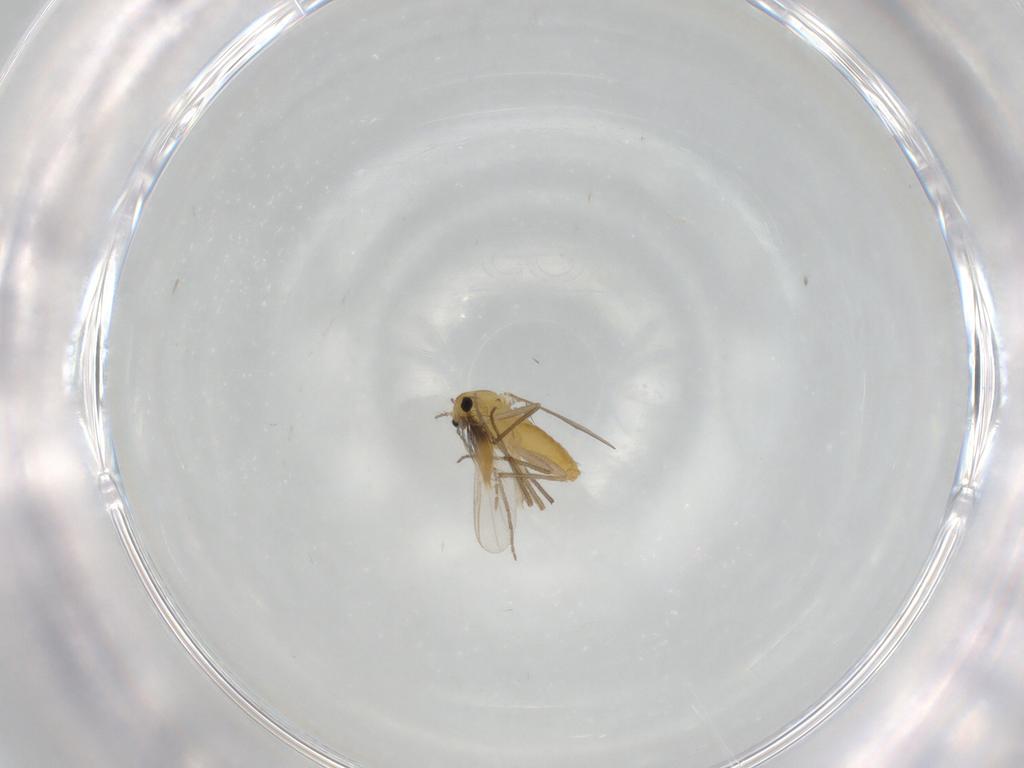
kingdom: Animalia
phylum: Arthropoda
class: Insecta
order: Diptera
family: Chironomidae
